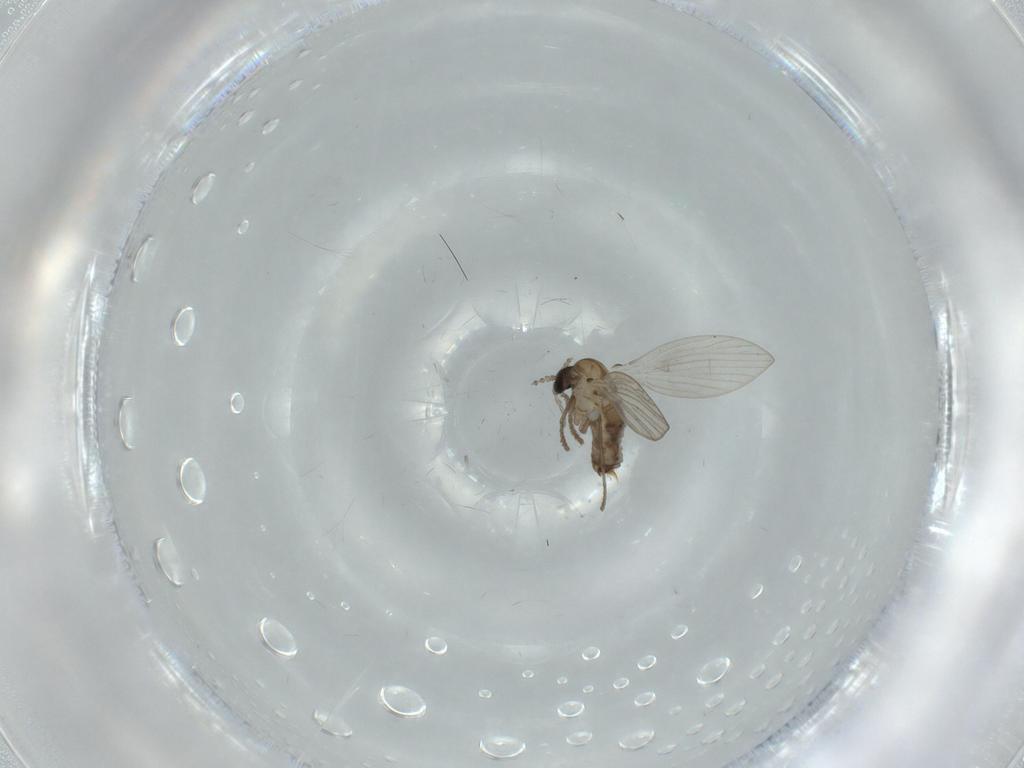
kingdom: Animalia
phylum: Arthropoda
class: Insecta
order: Diptera
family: Psychodidae
